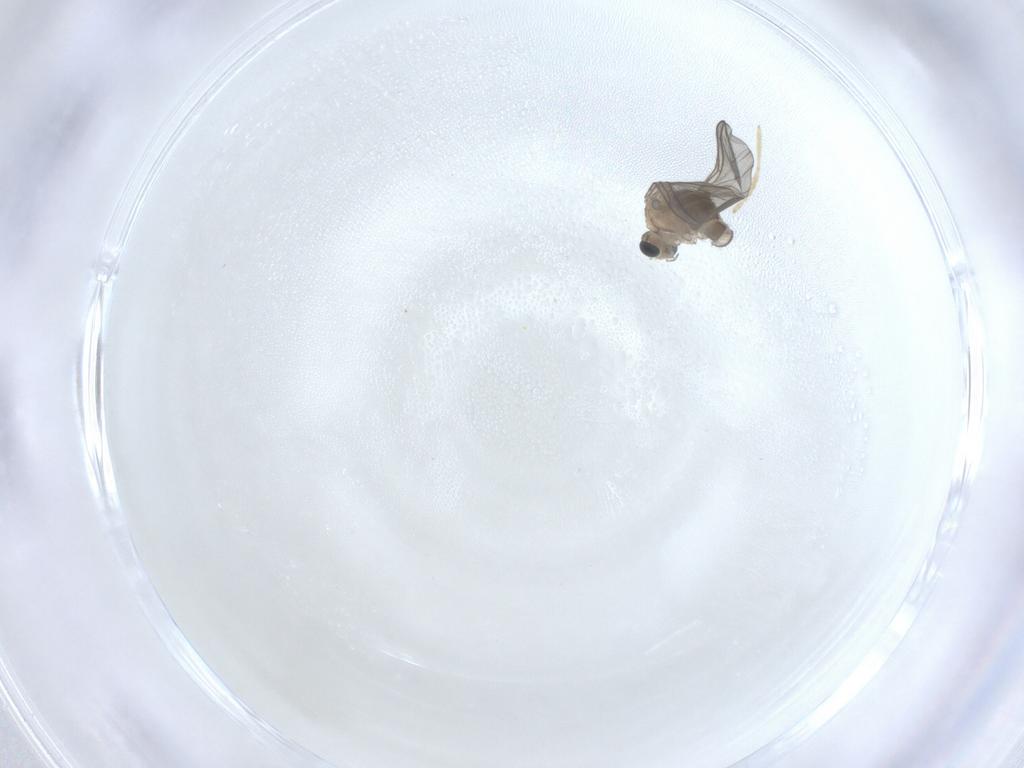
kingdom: Animalia
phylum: Arthropoda
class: Insecta
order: Diptera
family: Chironomidae
